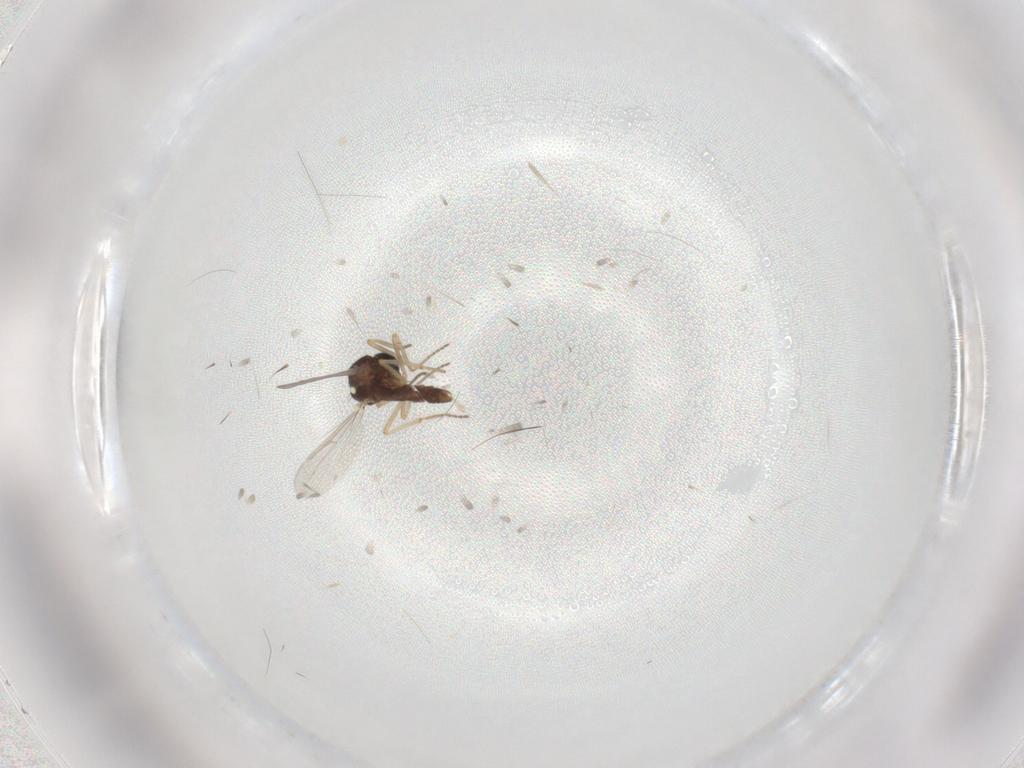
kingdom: Animalia
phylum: Arthropoda
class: Insecta
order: Diptera
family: Ceratopogonidae
